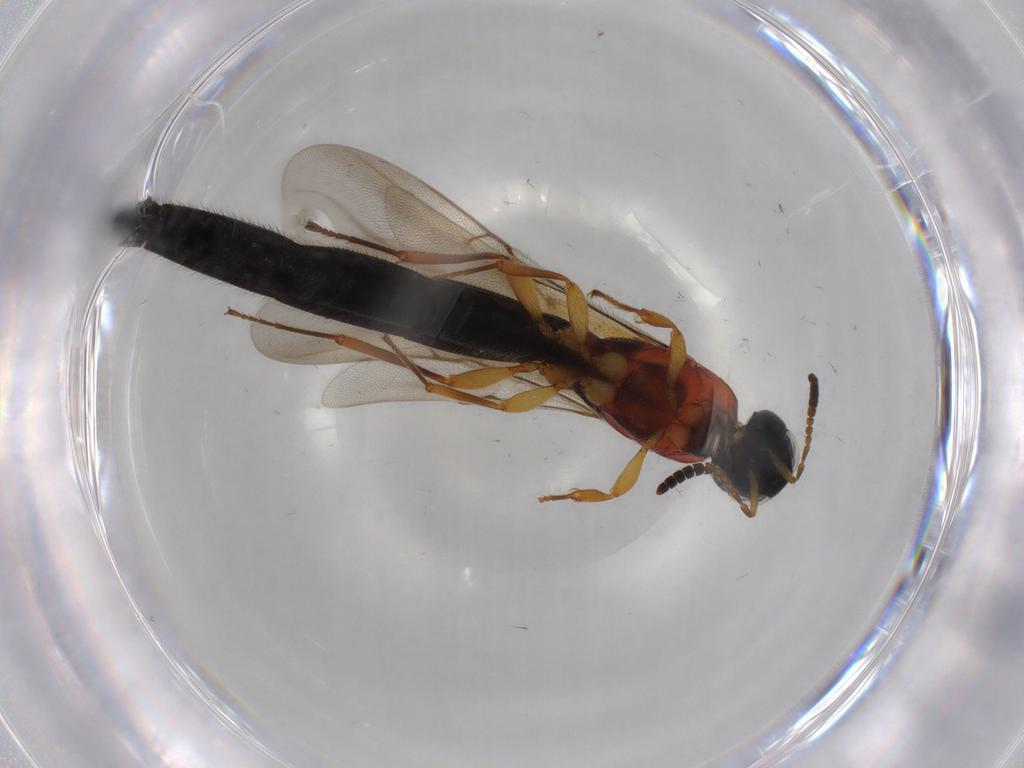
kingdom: Animalia
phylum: Arthropoda
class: Insecta
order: Hymenoptera
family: Scelionidae
